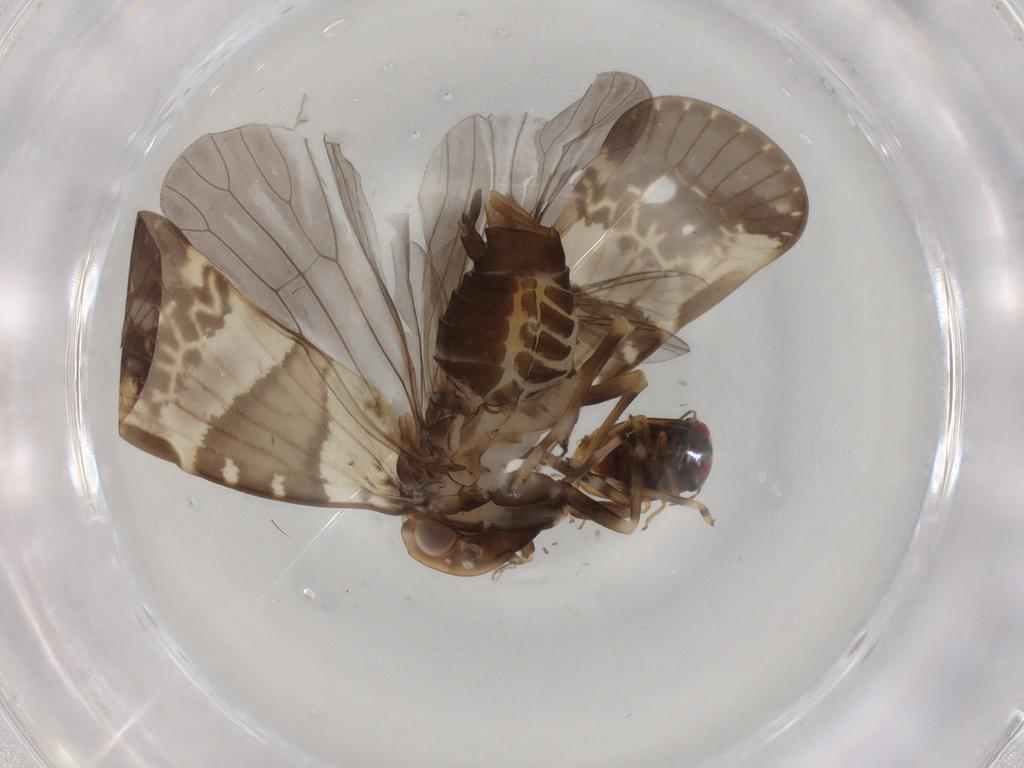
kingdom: Animalia
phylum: Arthropoda
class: Insecta
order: Hemiptera
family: Schizopteridae
